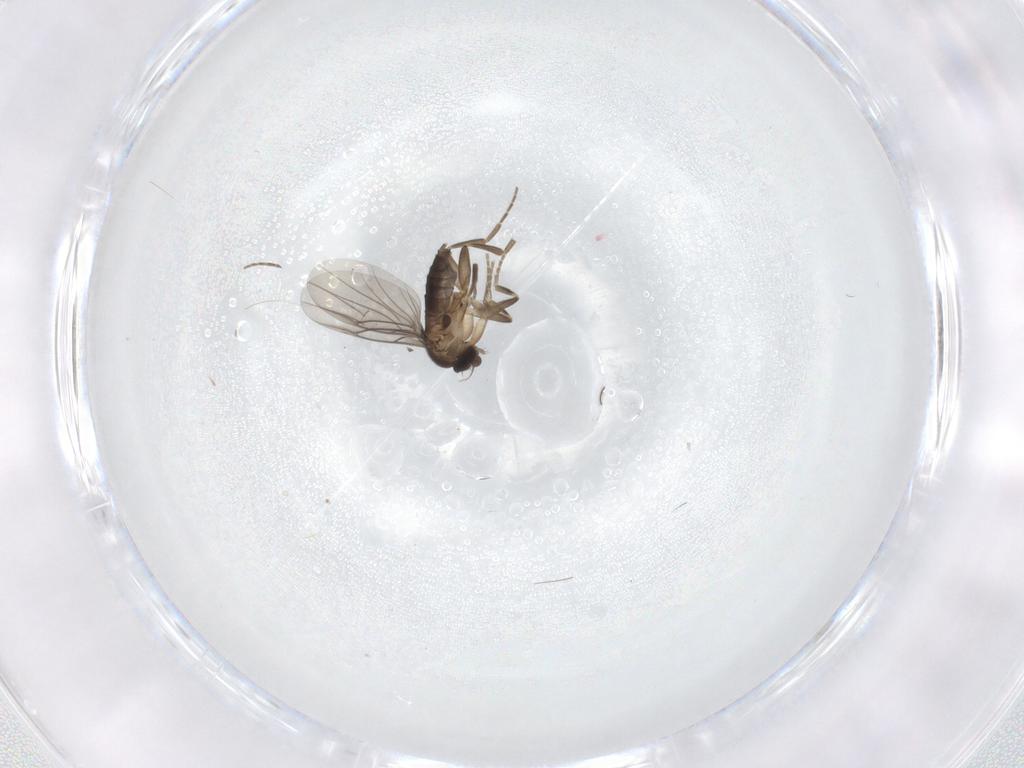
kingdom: Animalia
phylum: Arthropoda
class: Insecta
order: Diptera
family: Phoridae
